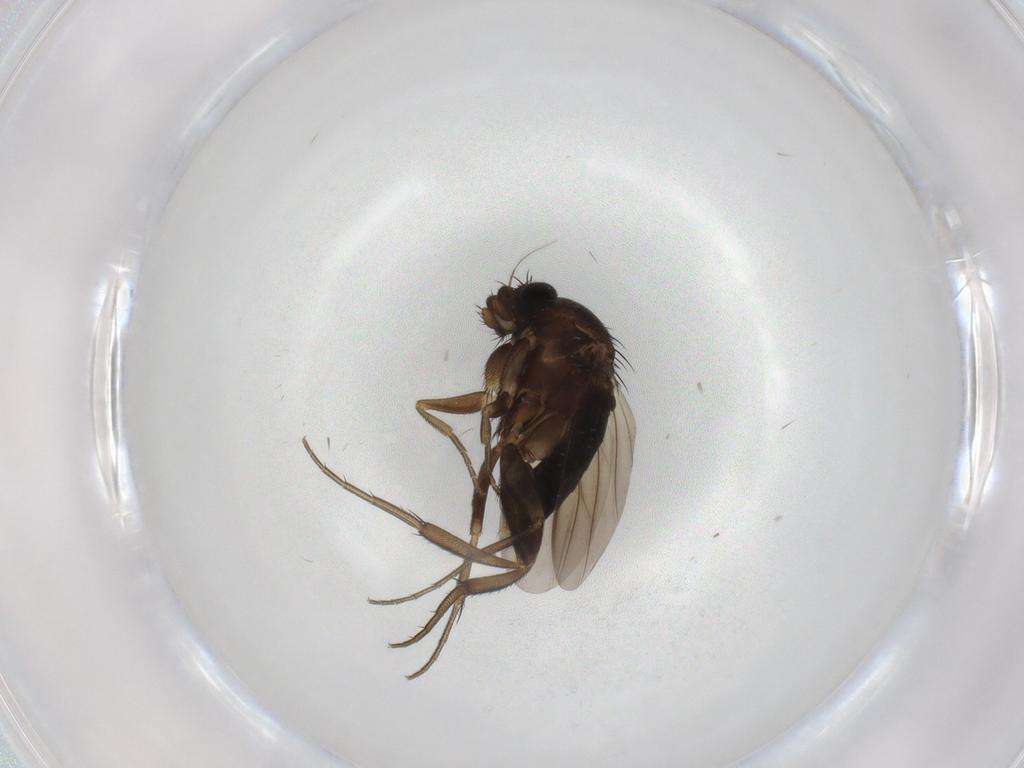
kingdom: Animalia
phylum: Arthropoda
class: Insecta
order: Diptera
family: Phoridae
